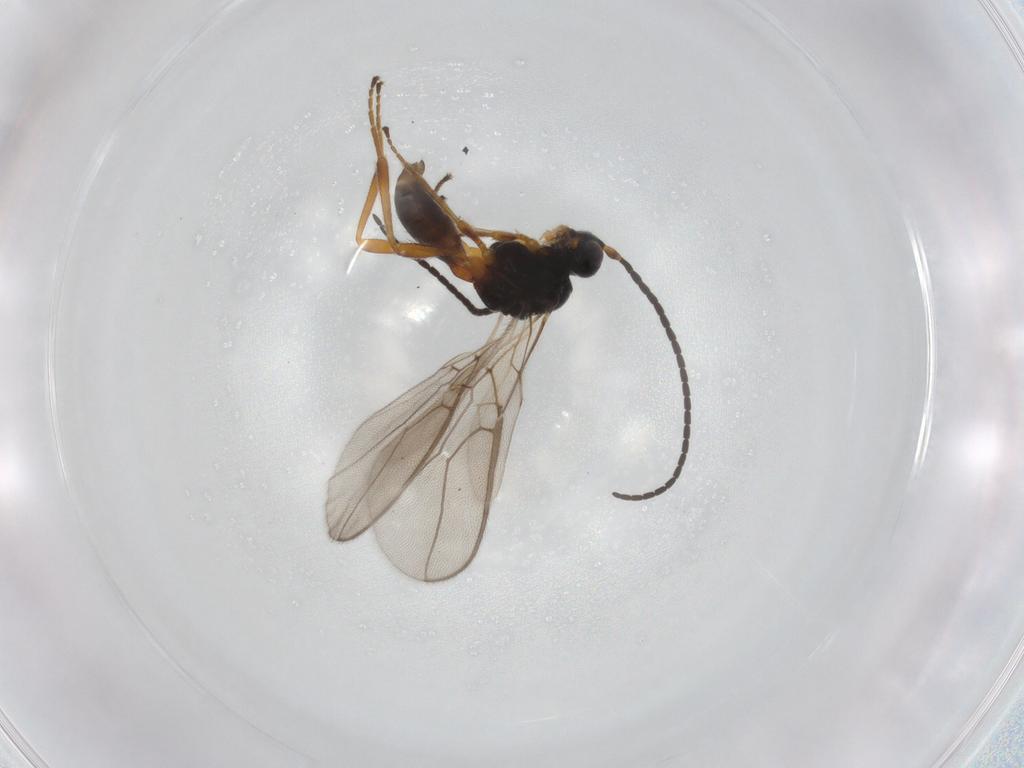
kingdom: Animalia
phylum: Arthropoda
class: Insecta
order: Hymenoptera
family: Braconidae
